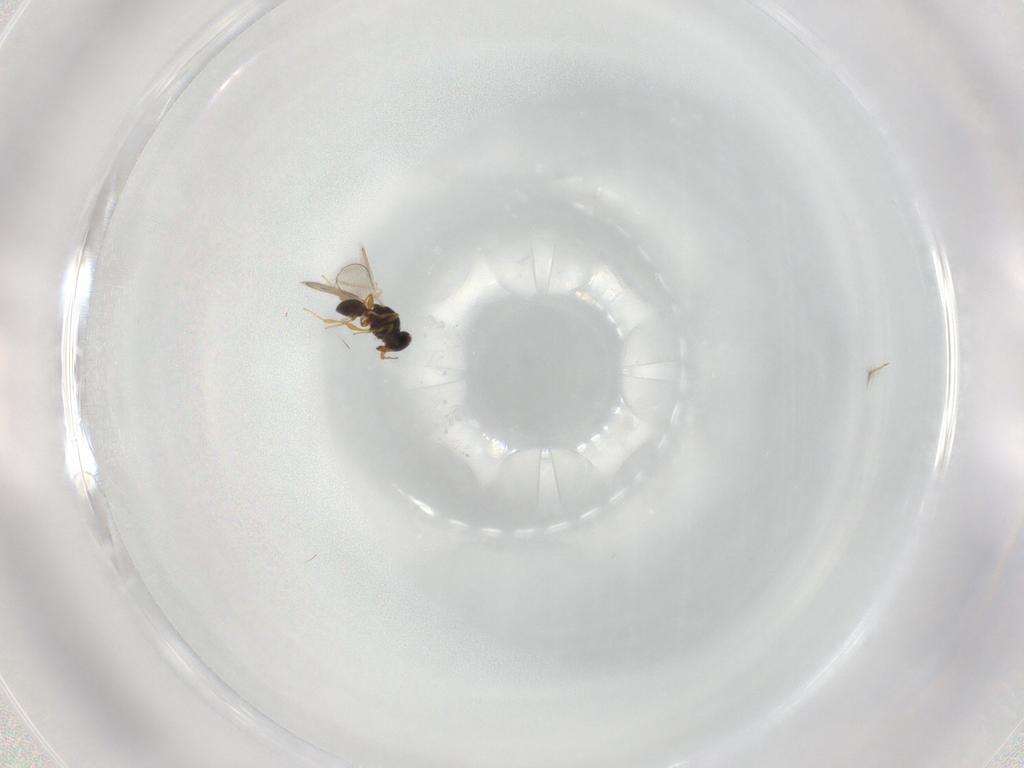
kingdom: Animalia
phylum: Arthropoda
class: Insecta
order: Hymenoptera
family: Platygastridae
